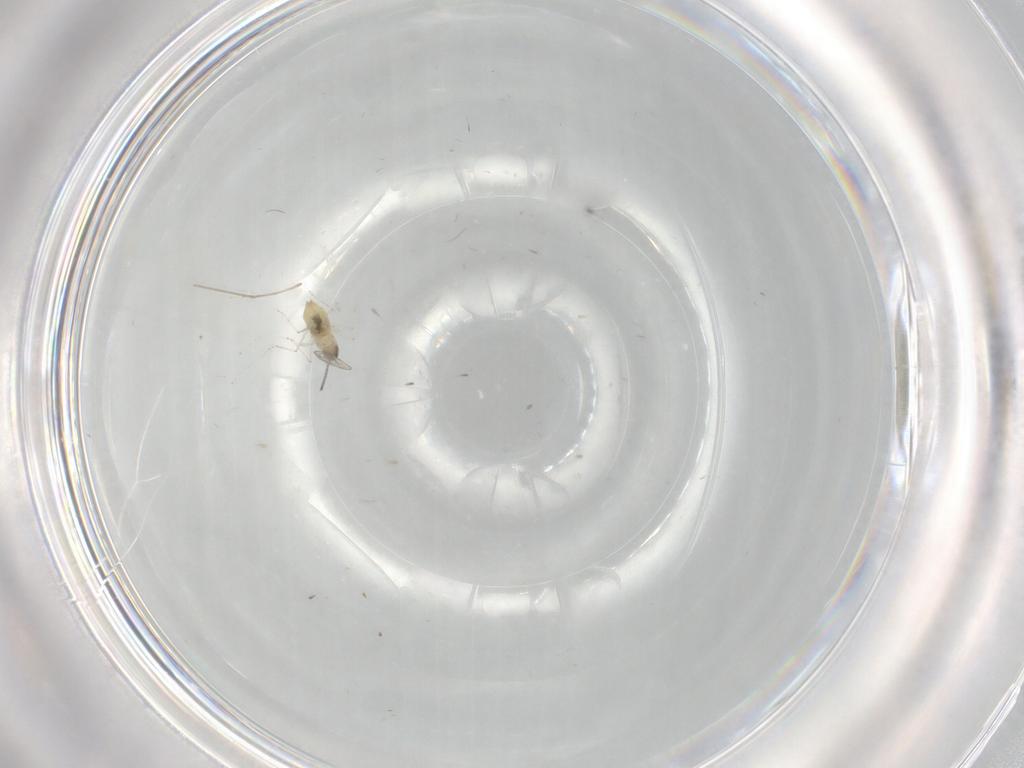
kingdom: Animalia
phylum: Arthropoda
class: Insecta
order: Diptera
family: Cecidomyiidae
